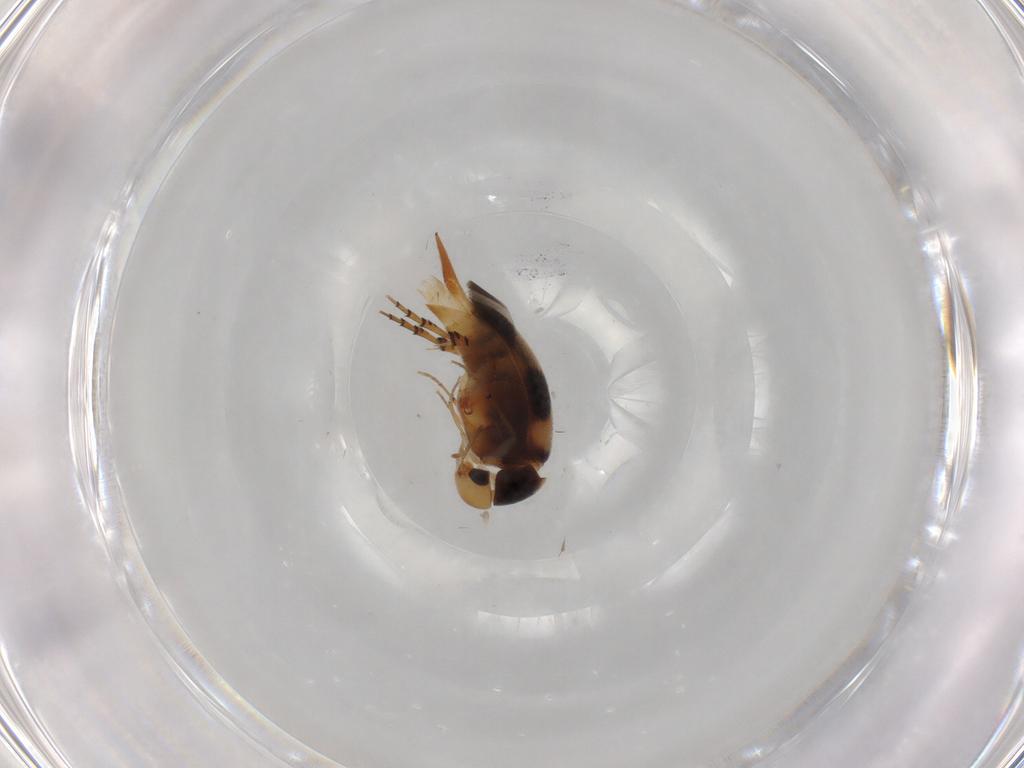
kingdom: Animalia
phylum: Arthropoda
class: Insecta
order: Coleoptera
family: Mordellidae
